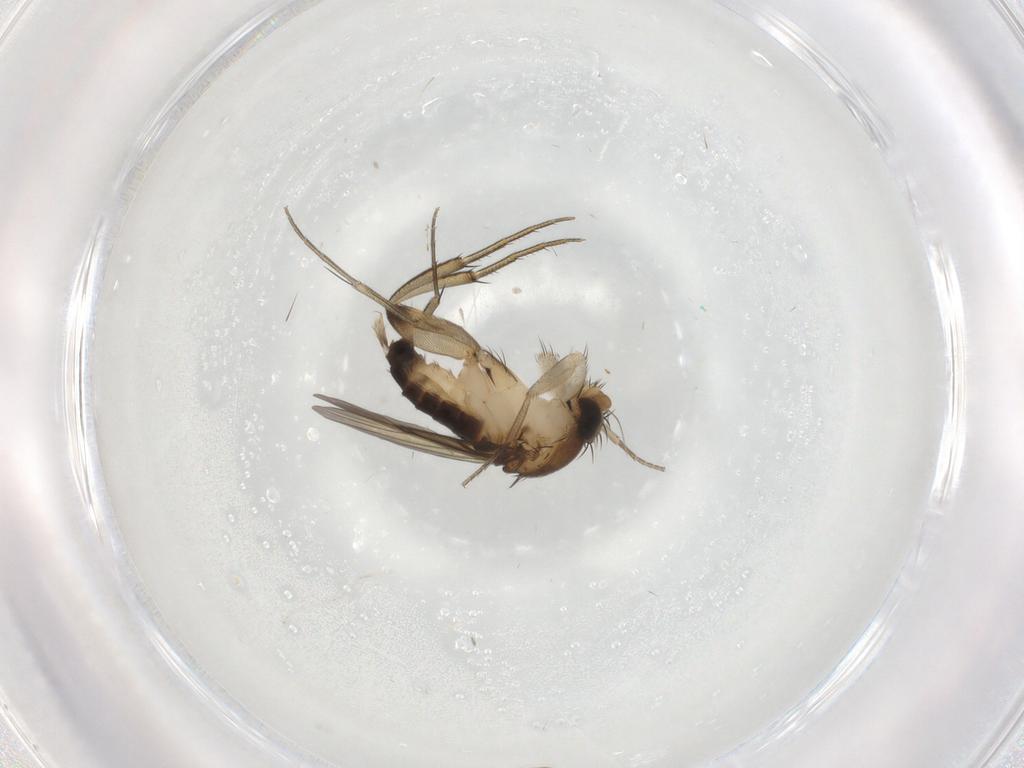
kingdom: Animalia
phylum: Arthropoda
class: Insecta
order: Diptera
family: Phoridae
